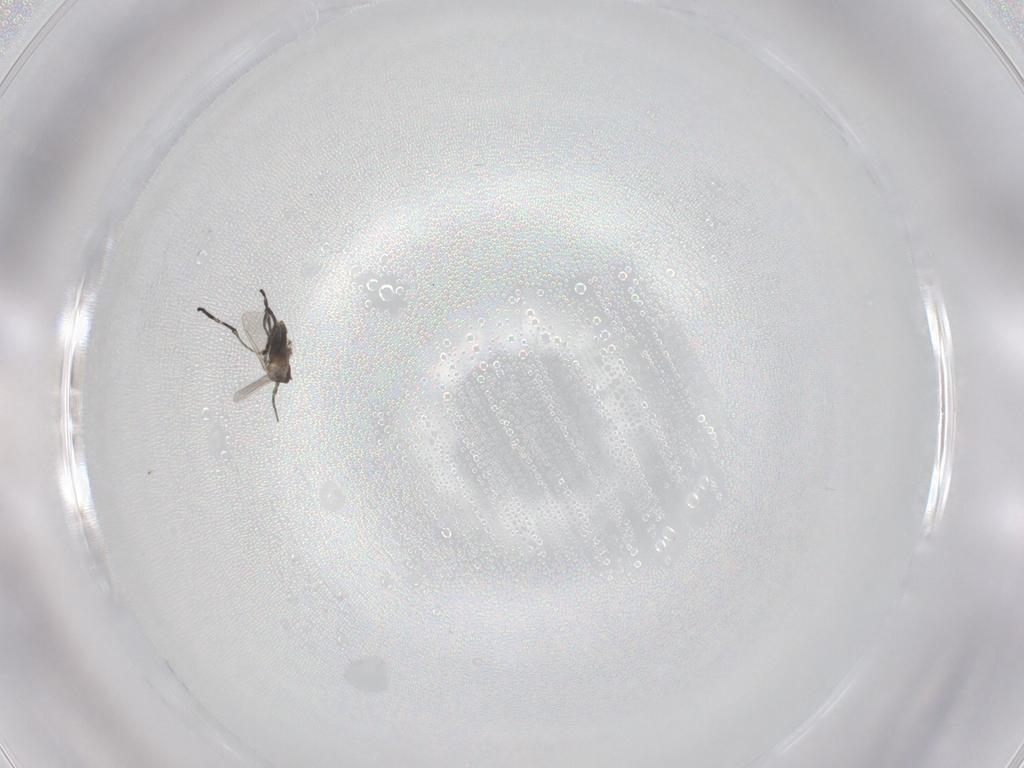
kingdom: Animalia
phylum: Arthropoda
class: Insecta
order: Diptera
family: Cecidomyiidae
